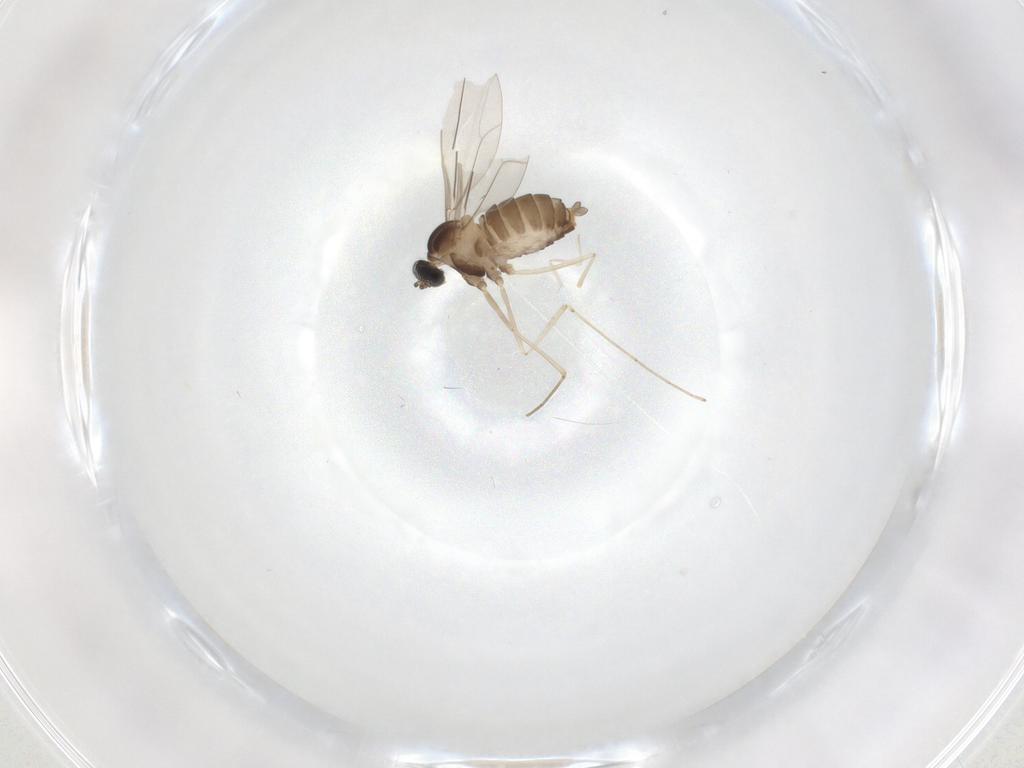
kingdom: Animalia
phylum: Arthropoda
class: Insecta
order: Diptera
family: Cecidomyiidae
